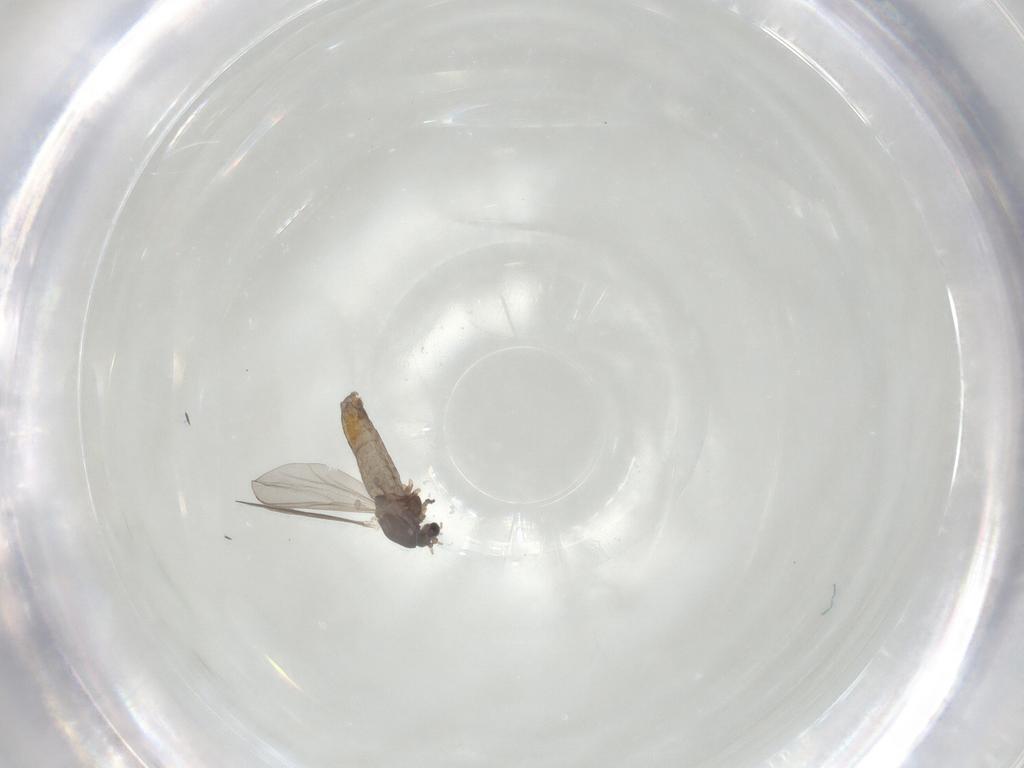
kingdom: Animalia
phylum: Arthropoda
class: Insecta
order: Diptera
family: Chironomidae
